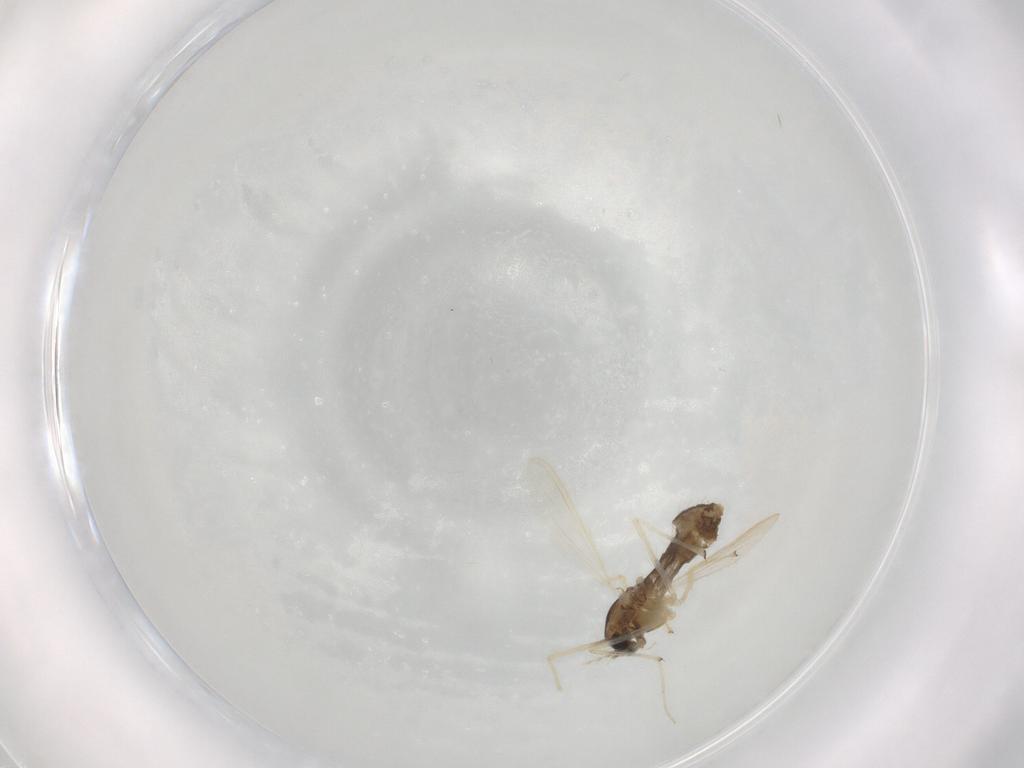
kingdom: Animalia
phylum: Arthropoda
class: Insecta
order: Diptera
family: Chironomidae
